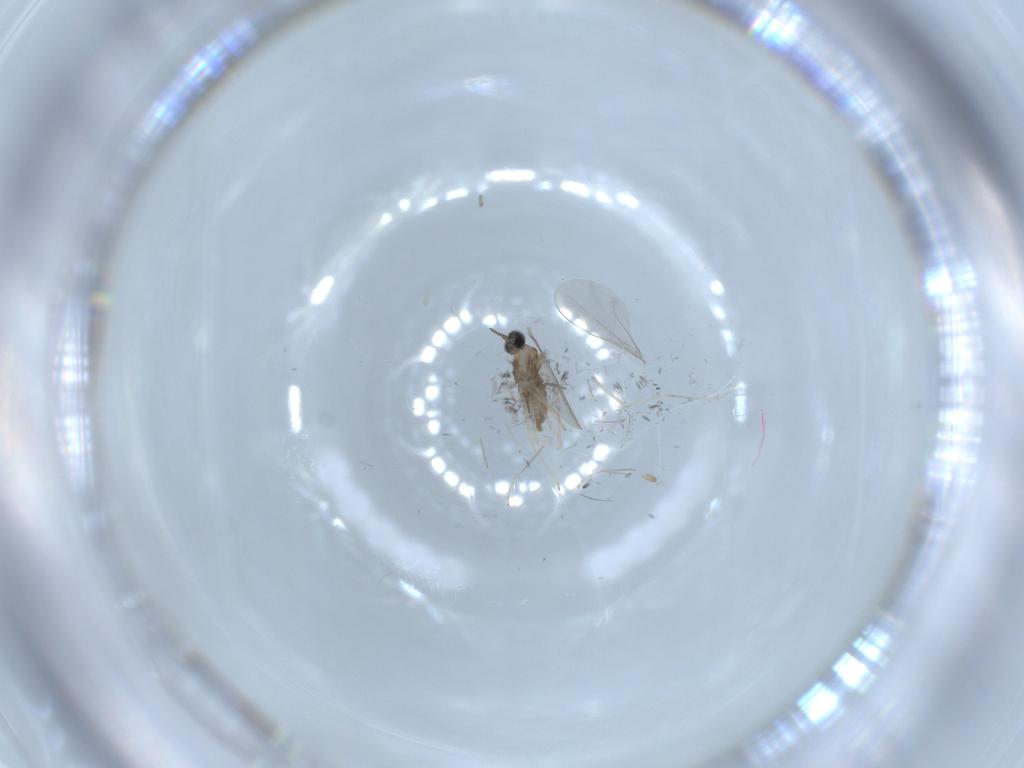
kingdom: Animalia
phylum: Arthropoda
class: Insecta
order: Diptera
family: Cecidomyiidae
